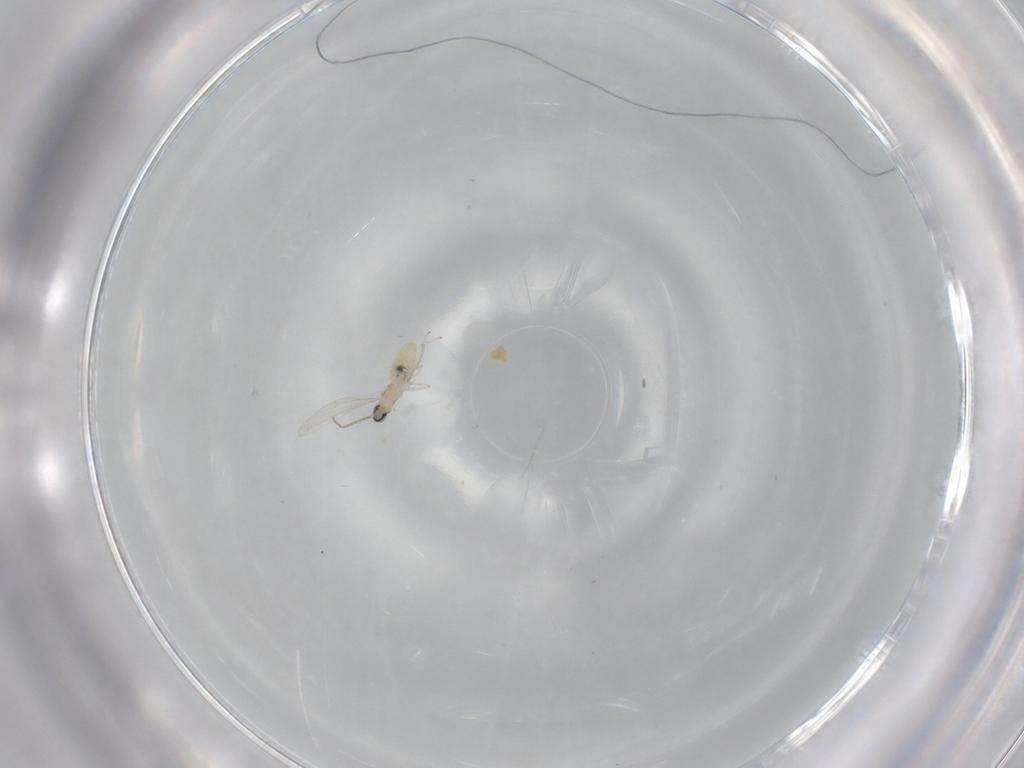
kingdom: Animalia
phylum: Arthropoda
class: Insecta
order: Diptera
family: Cecidomyiidae
